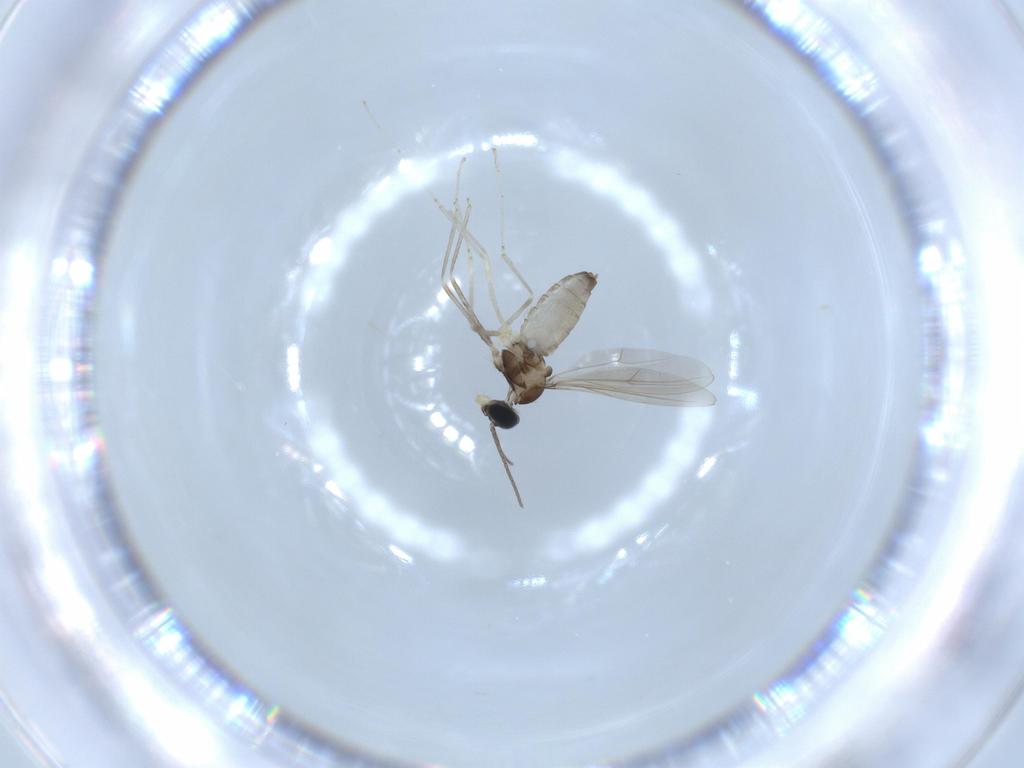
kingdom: Animalia
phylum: Arthropoda
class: Insecta
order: Diptera
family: Cecidomyiidae
